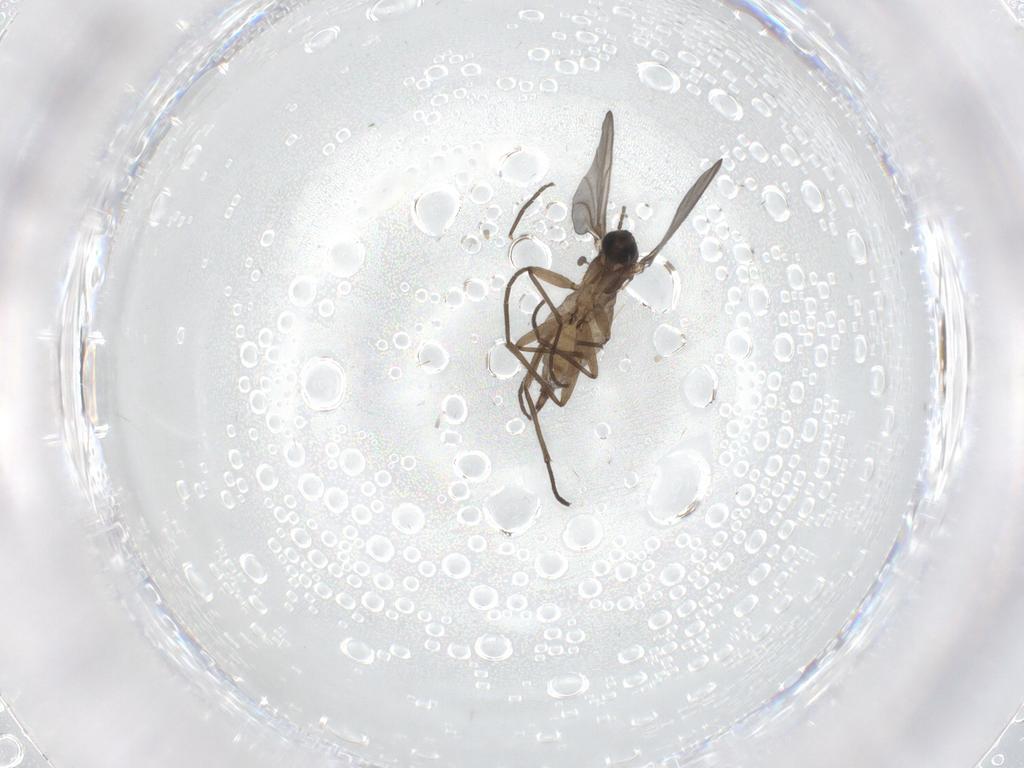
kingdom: Animalia
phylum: Arthropoda
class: Insecta
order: Diptera
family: Sciaridae
